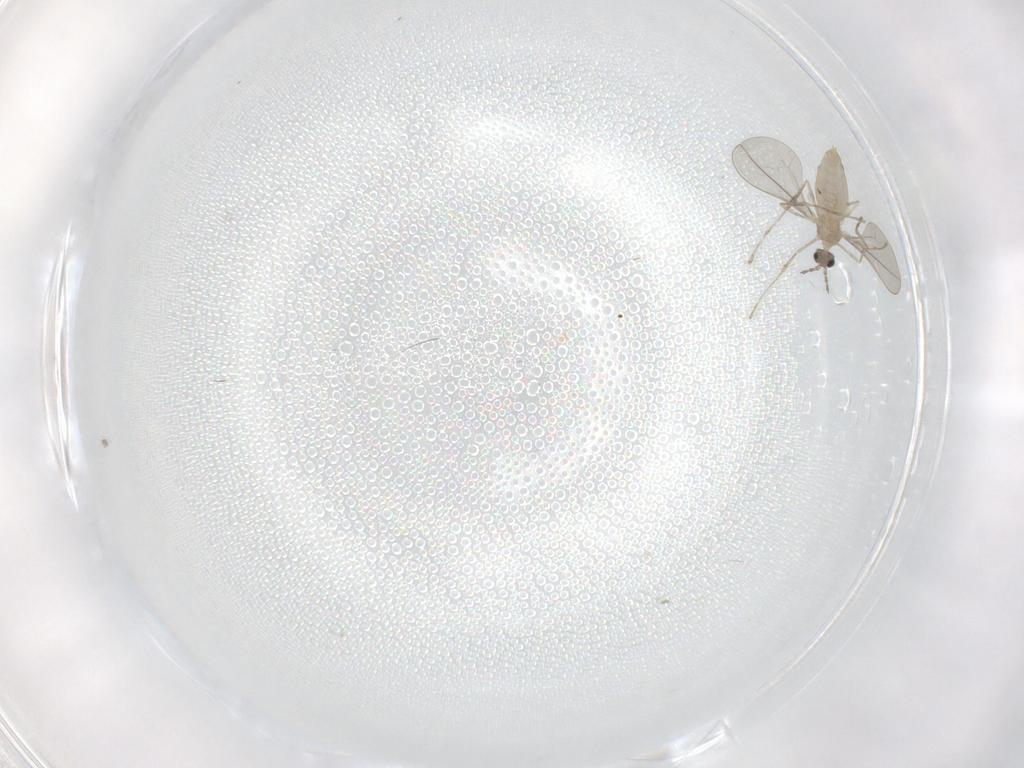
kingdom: Animalia
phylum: Arthropoda
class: Insecta
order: Diptera
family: Cecidomyiidae
